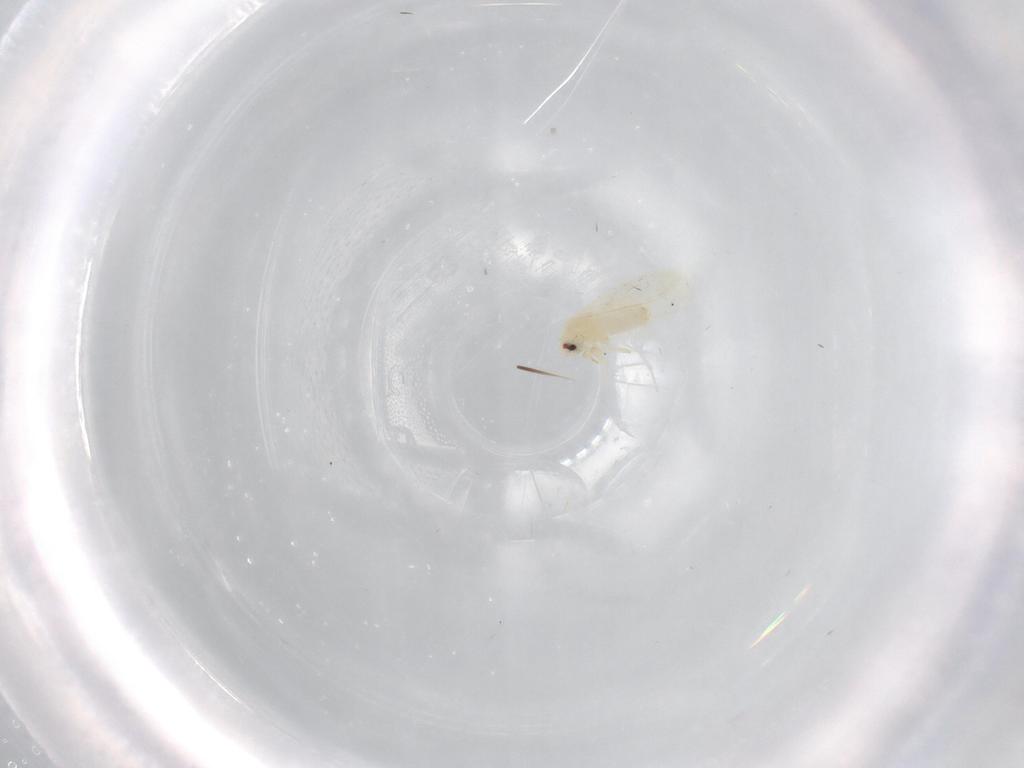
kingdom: Animalia
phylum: Arthropoda
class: Insecta
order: Hemiptera
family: Aleyrodidae
